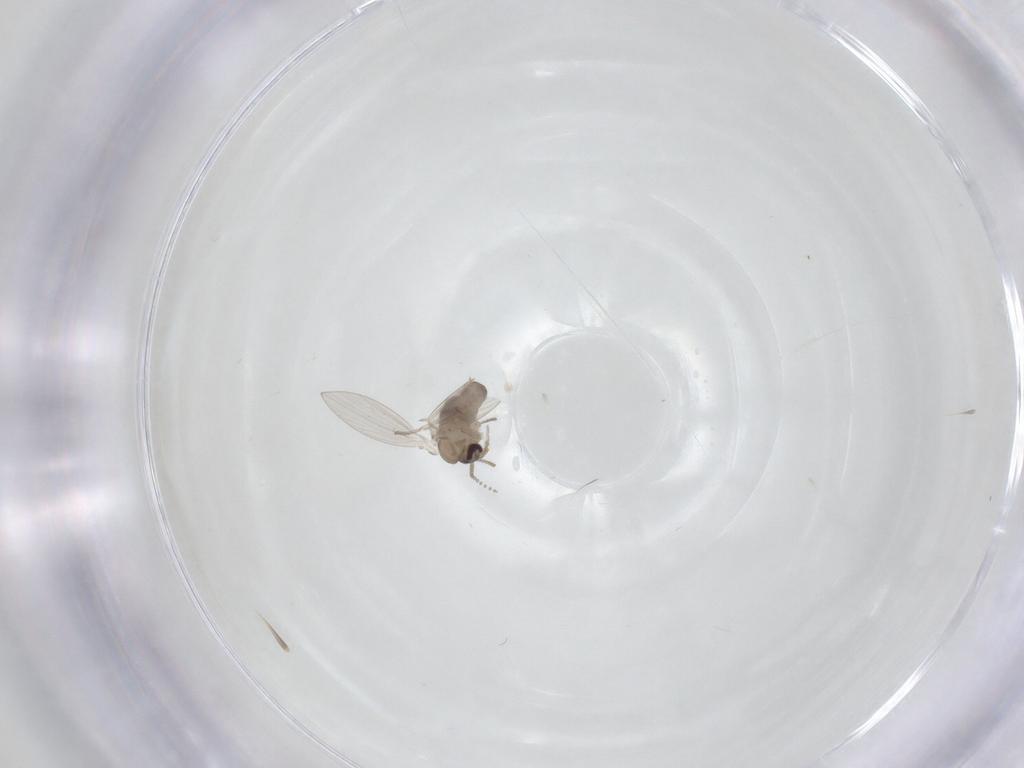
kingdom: Animalia
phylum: Arthropoda
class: Insecta
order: Diptera
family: Psychodidae
